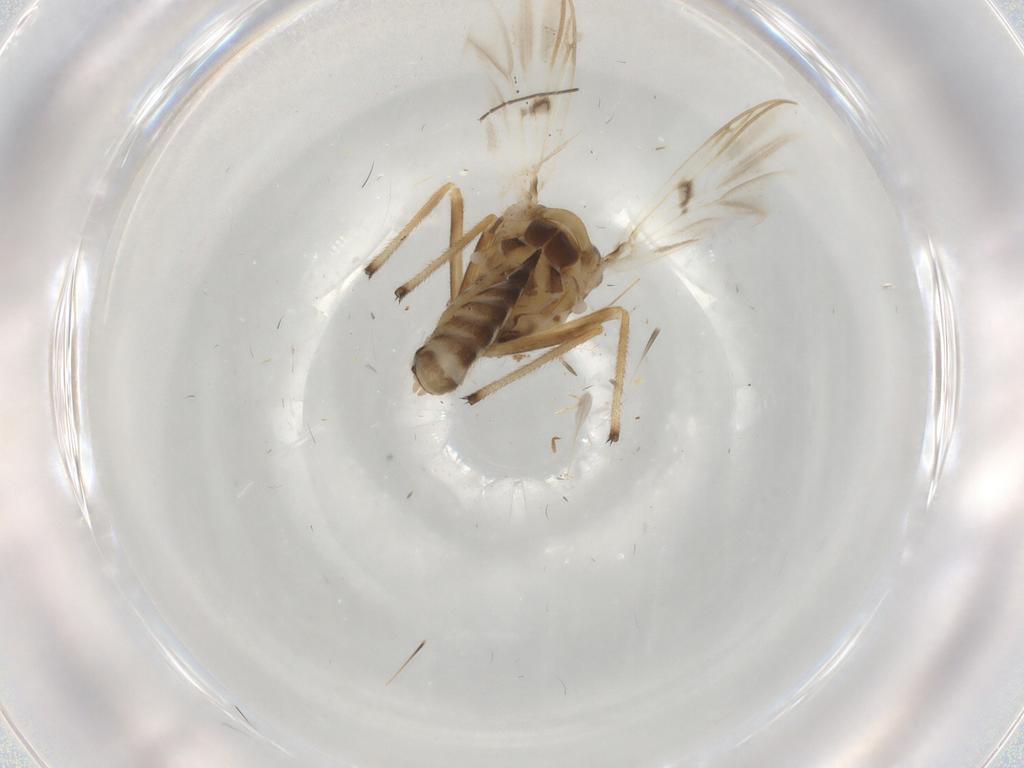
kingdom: Animalia
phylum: Arthropoda
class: Insecta
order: Diptera
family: Chironomidae
